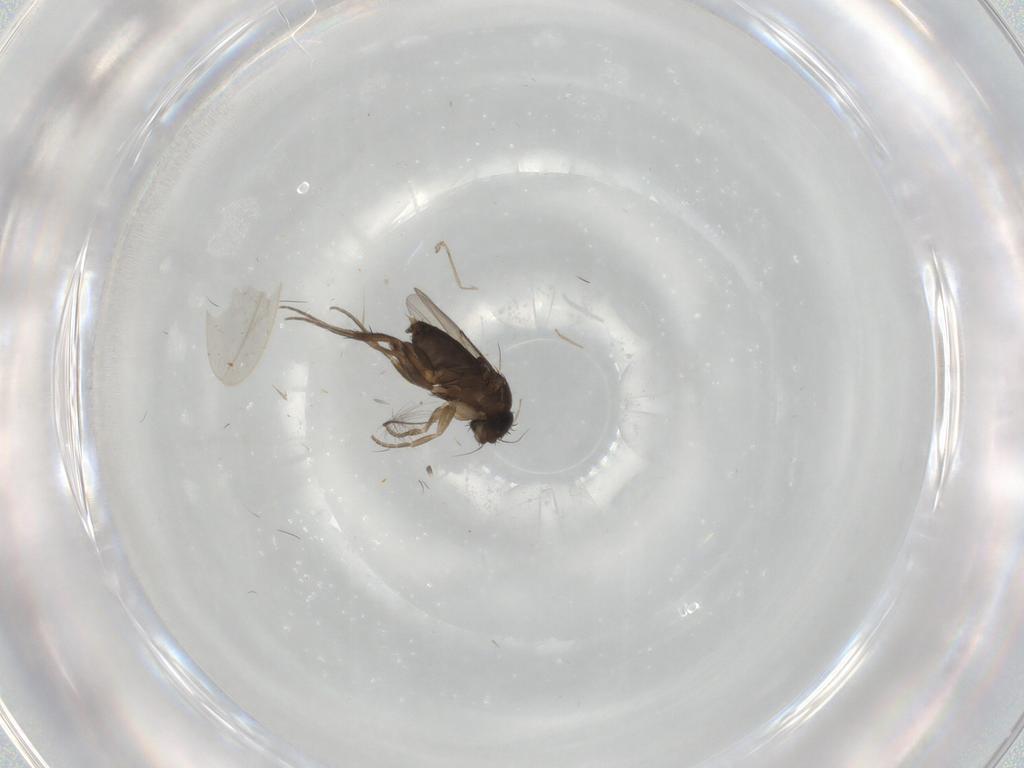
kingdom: Animalia
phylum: Arthropoda
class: Insecta
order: Diptera
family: Phoridae
